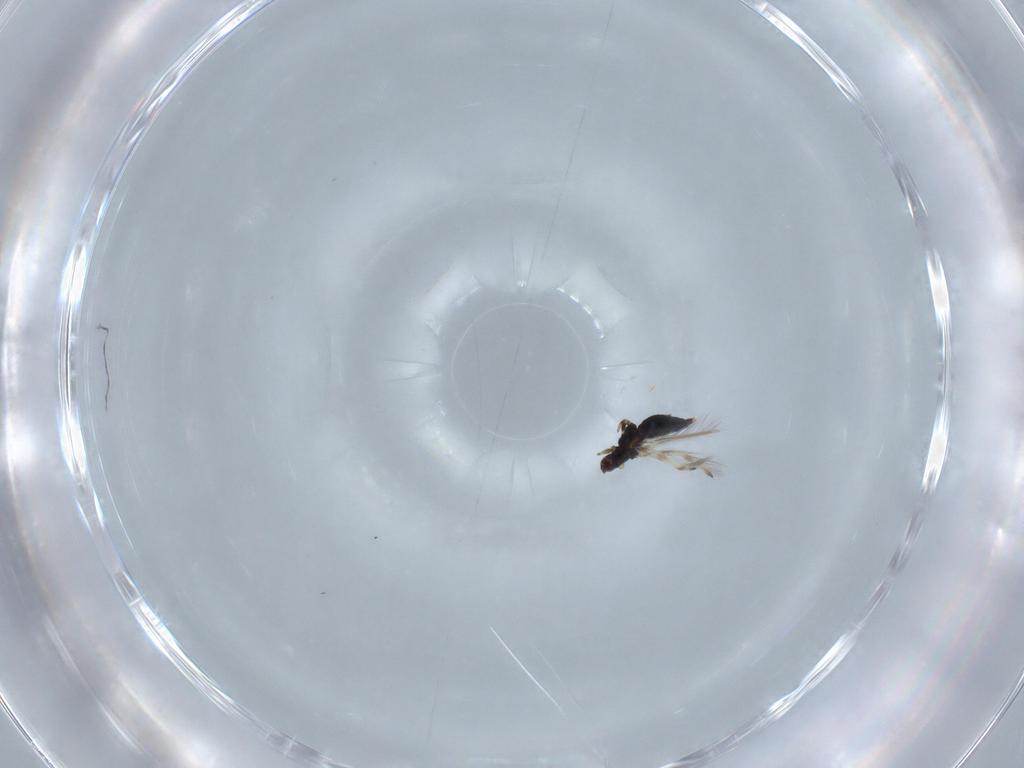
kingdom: Animalia
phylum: Arthropoda
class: Insecta
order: Thysanoptera
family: Thripidae
